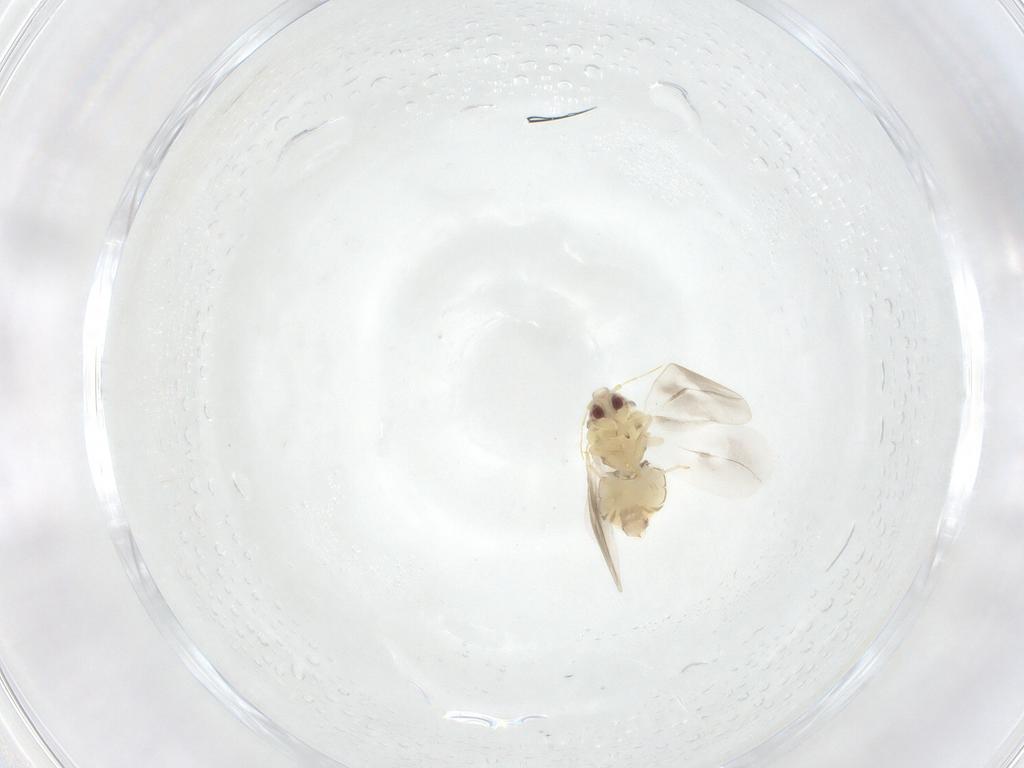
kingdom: Animalia
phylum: Arthropoda
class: Insecta
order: Hemiptera
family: Aleyrodidae
